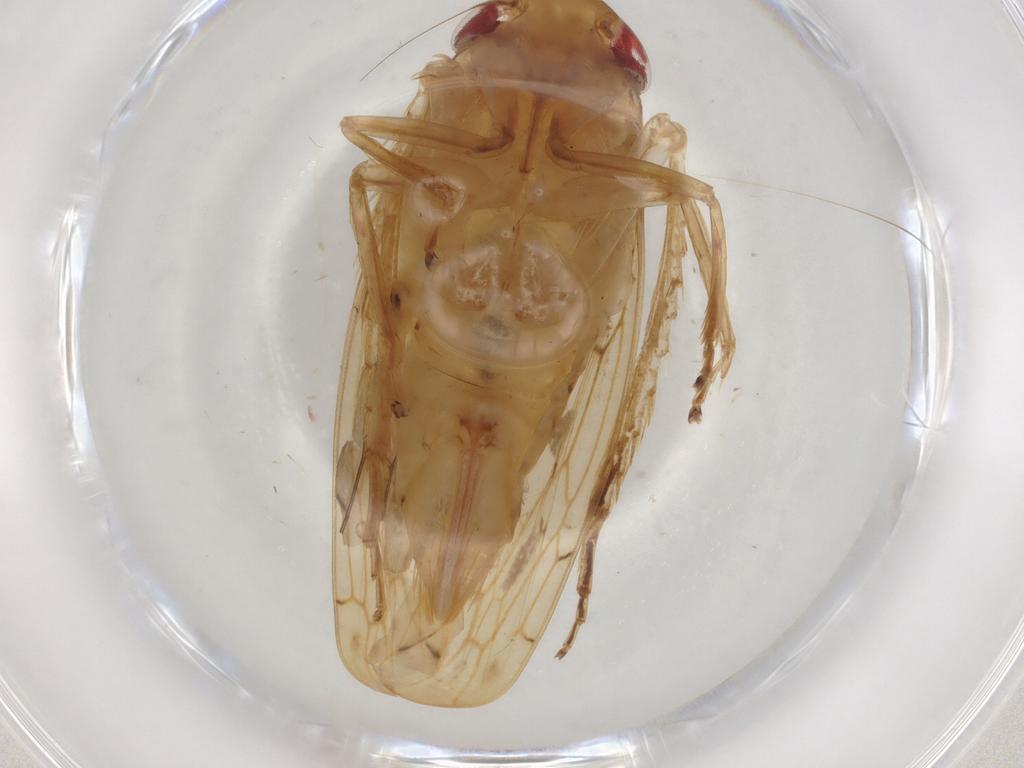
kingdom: Animalia
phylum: Arthropoda
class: Insecta
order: Hemiptera
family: Cicadellidae
